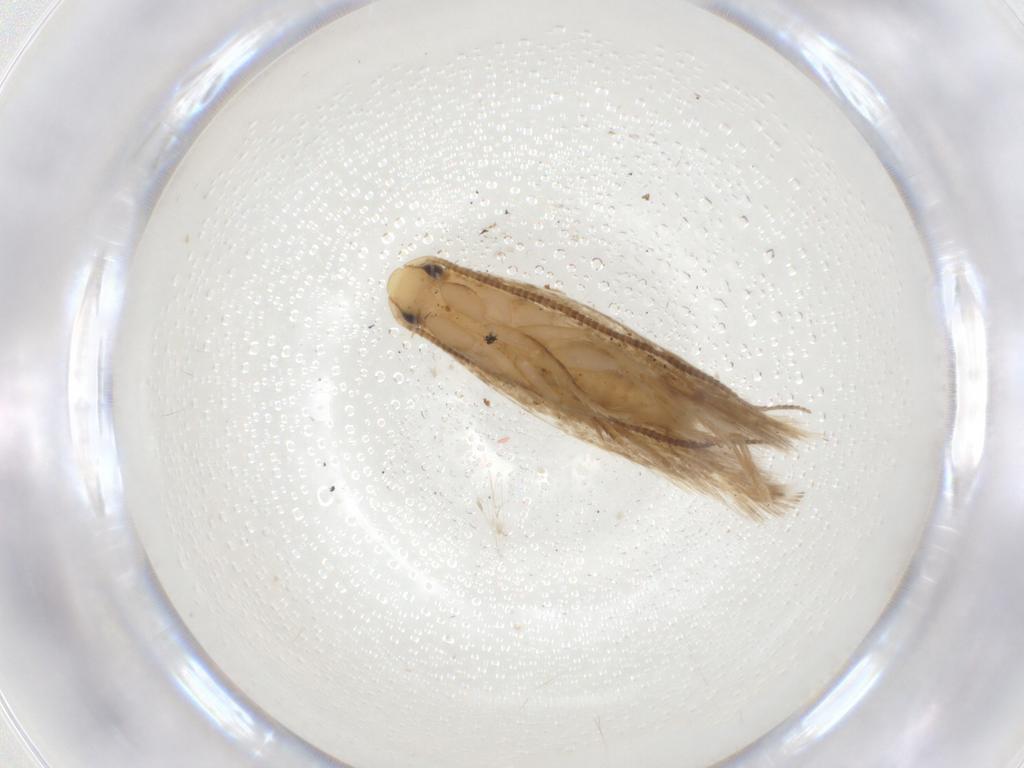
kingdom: Animalia
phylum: Arthropoda
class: Insecta
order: Lepidoptera
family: Tineidae
